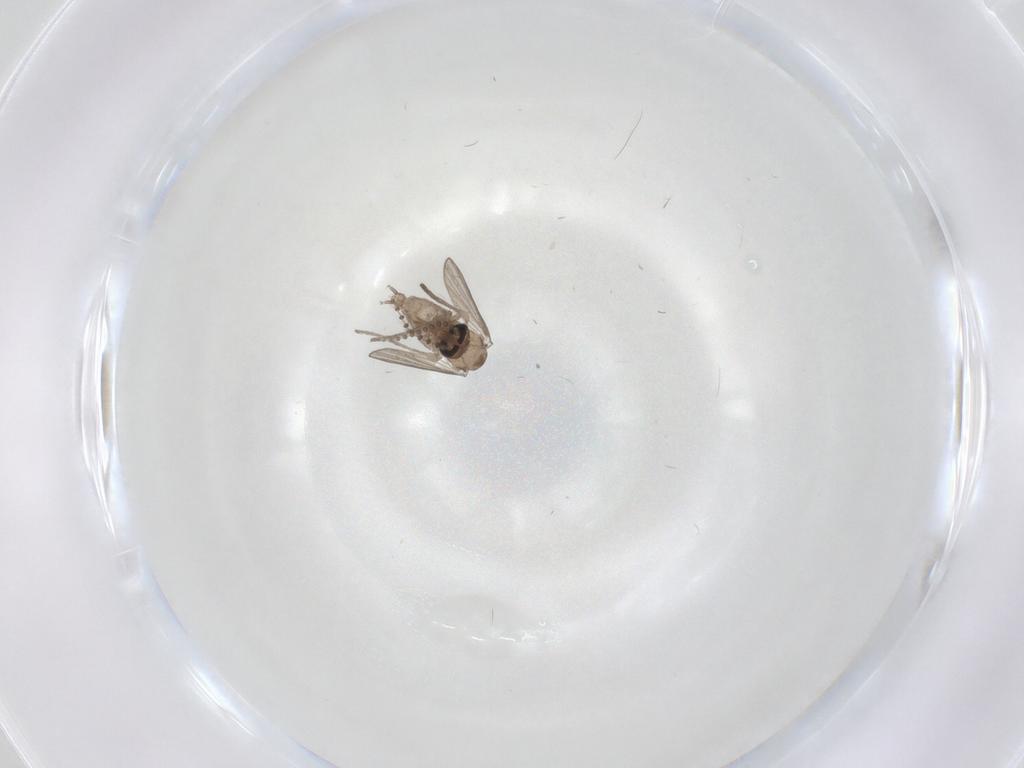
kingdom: Animalia
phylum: Arthropoda
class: Insecta
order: Diptera
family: Psychodidae
